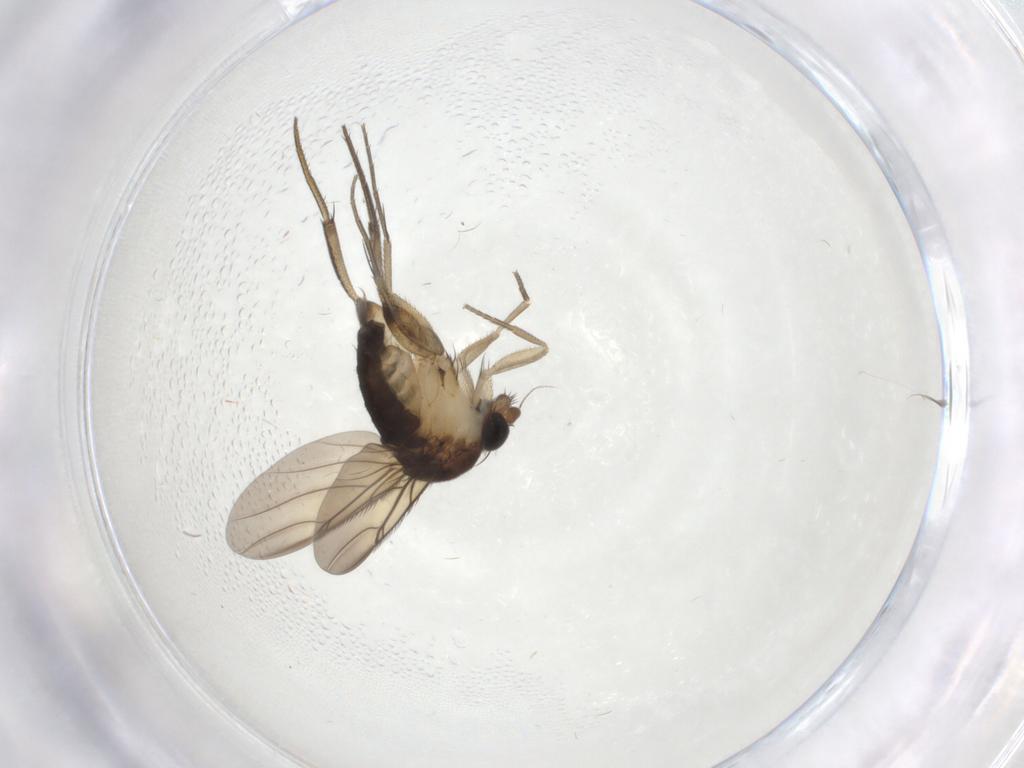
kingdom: Animalia
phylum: Arthropoda
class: Insecta
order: Diptera
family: Phoridae
